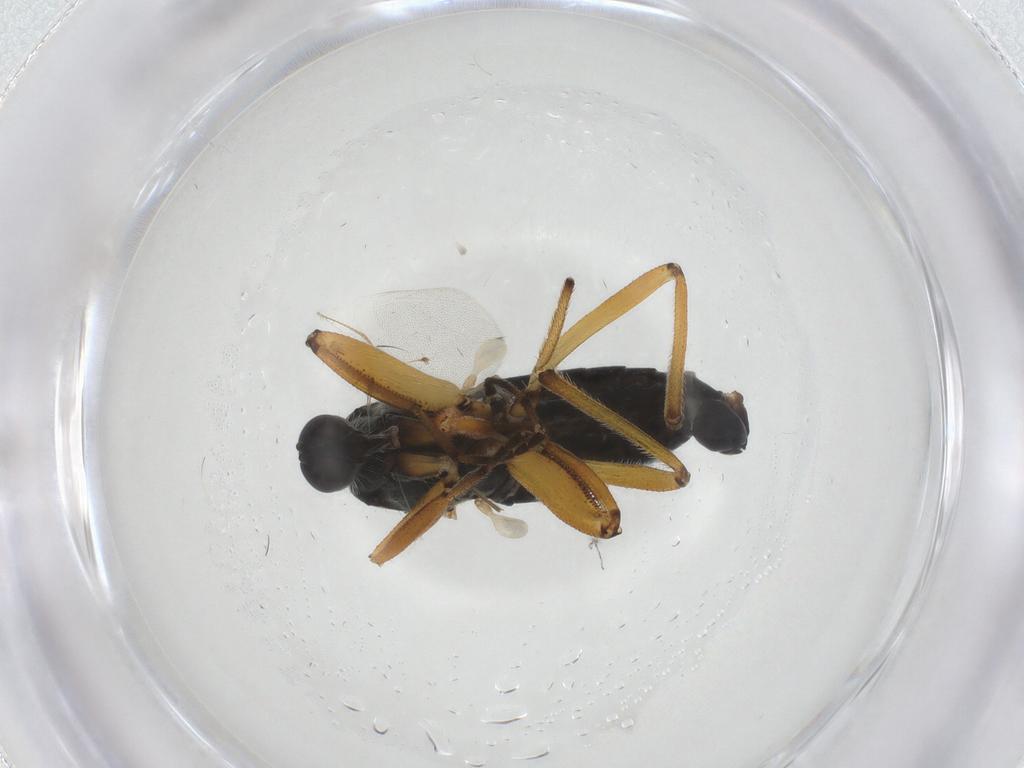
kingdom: Animalia
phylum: Arthropoda
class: Insecta
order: Diptera
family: Hybotidae
